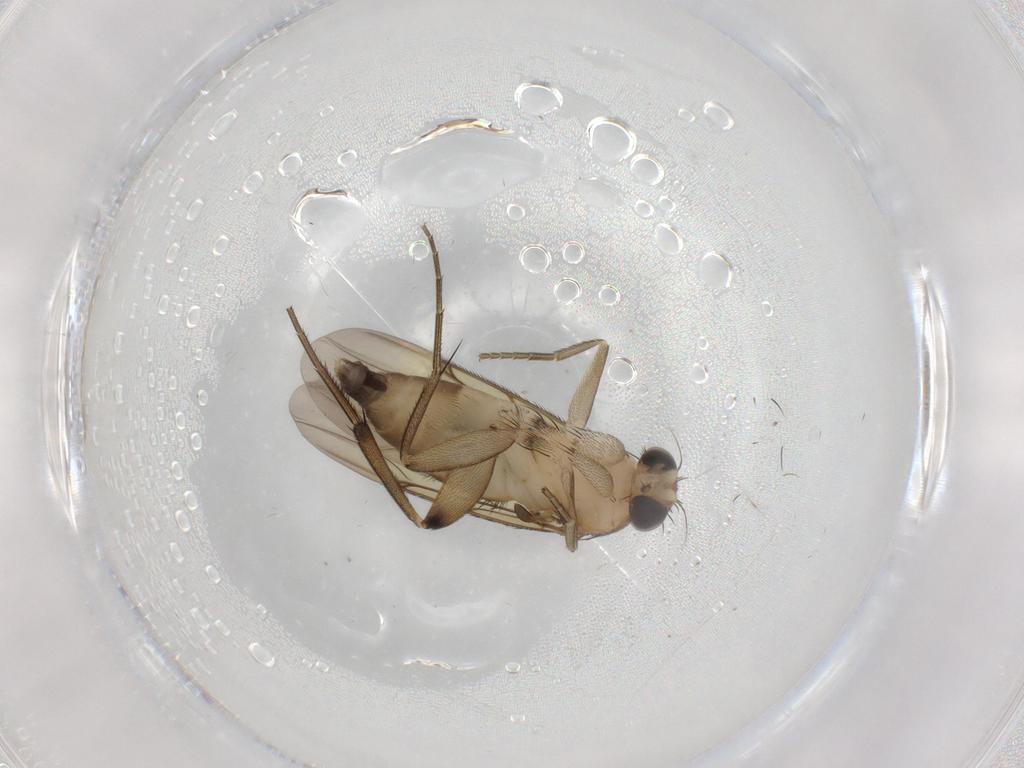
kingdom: Animalia
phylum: Arthropoda
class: Insecta
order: Diptera
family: Phoridae
